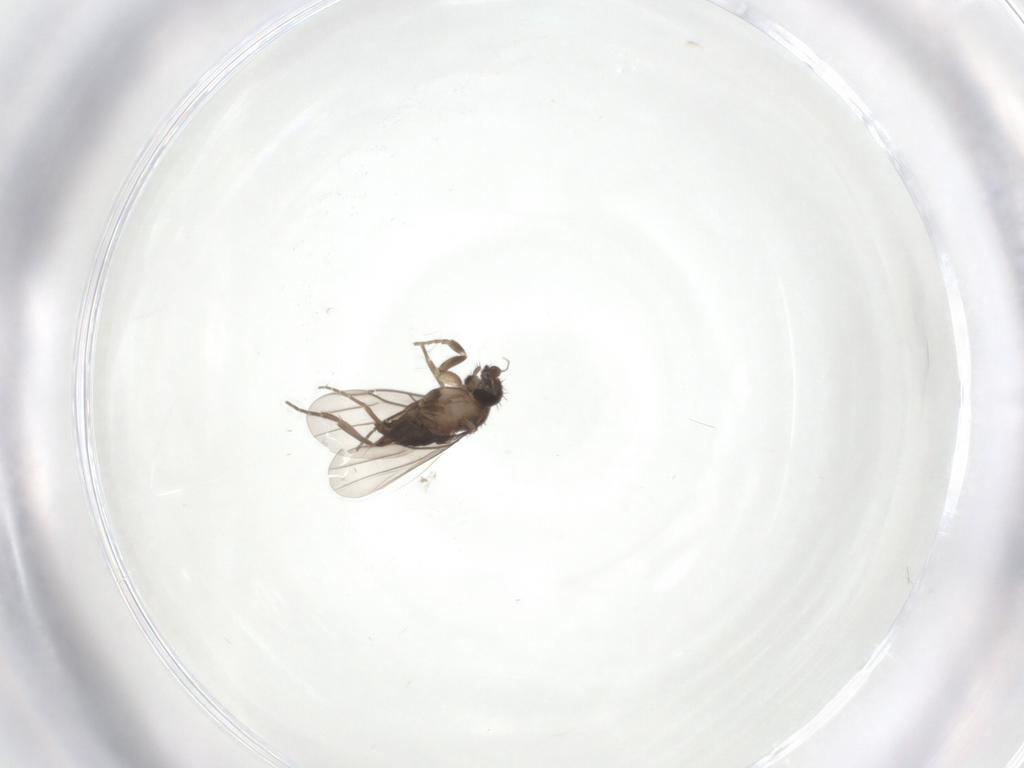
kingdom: Animalia
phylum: Arthropoda
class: Insecta
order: Diptera
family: Phoridae
